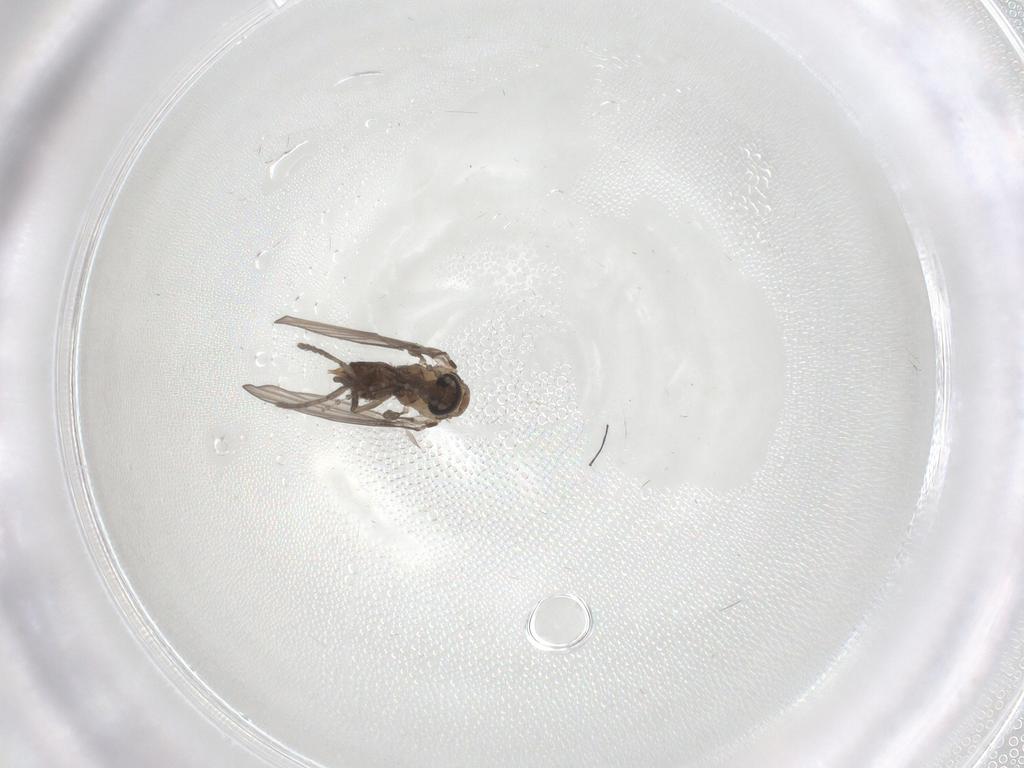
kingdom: Animalia
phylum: Arthropoda
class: Insecta
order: Diptera
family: Psychodidae
